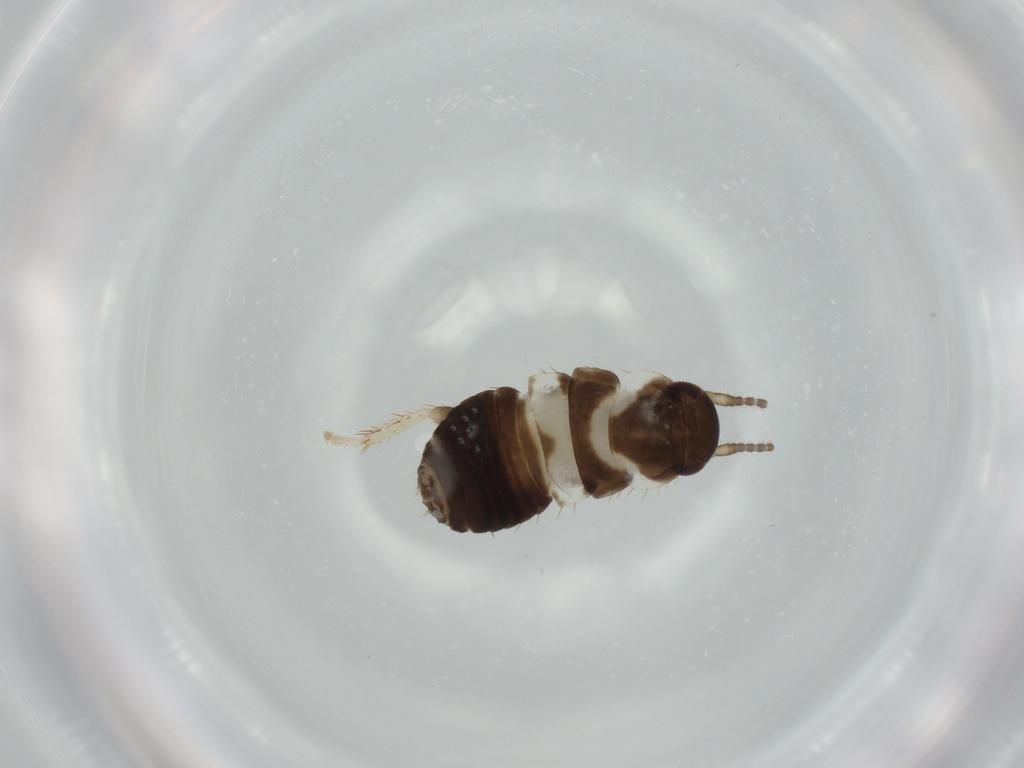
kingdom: Animalia
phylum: Arthropoda
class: Insecta
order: Blattodea
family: Ectobiidae
